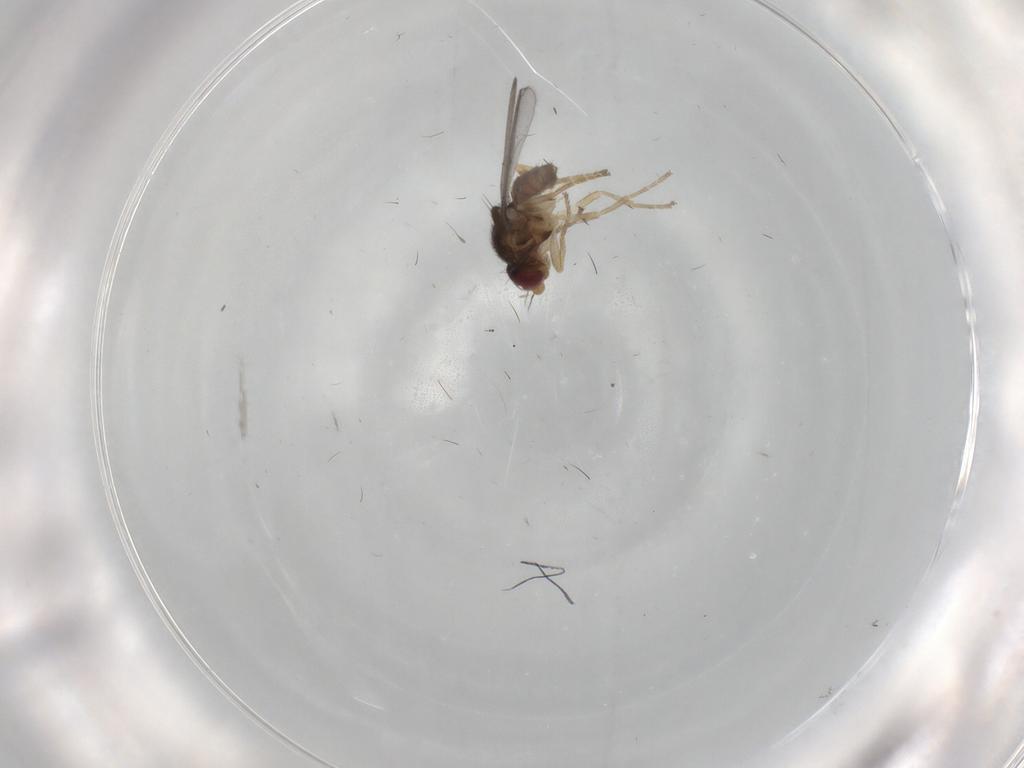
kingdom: Animalia
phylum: Arthropoda
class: Insecta
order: Diptera
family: Chloropidae
